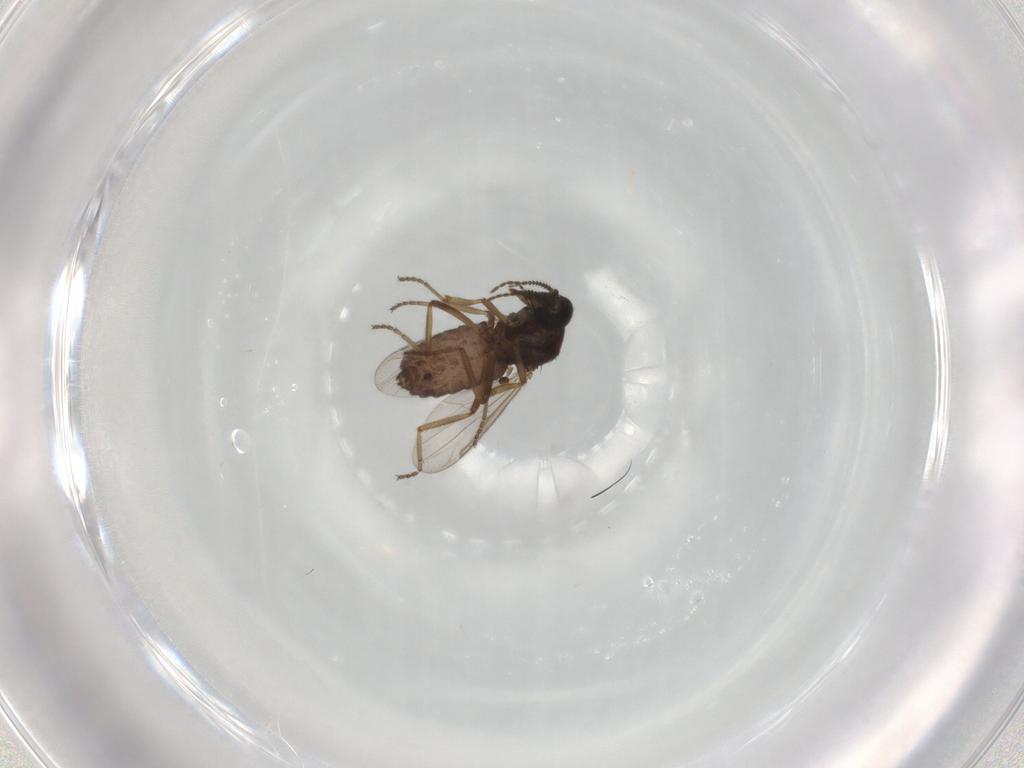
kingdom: Animalia
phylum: Arthropoda
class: Insecta
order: Diptera
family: Ceratopogonidae
